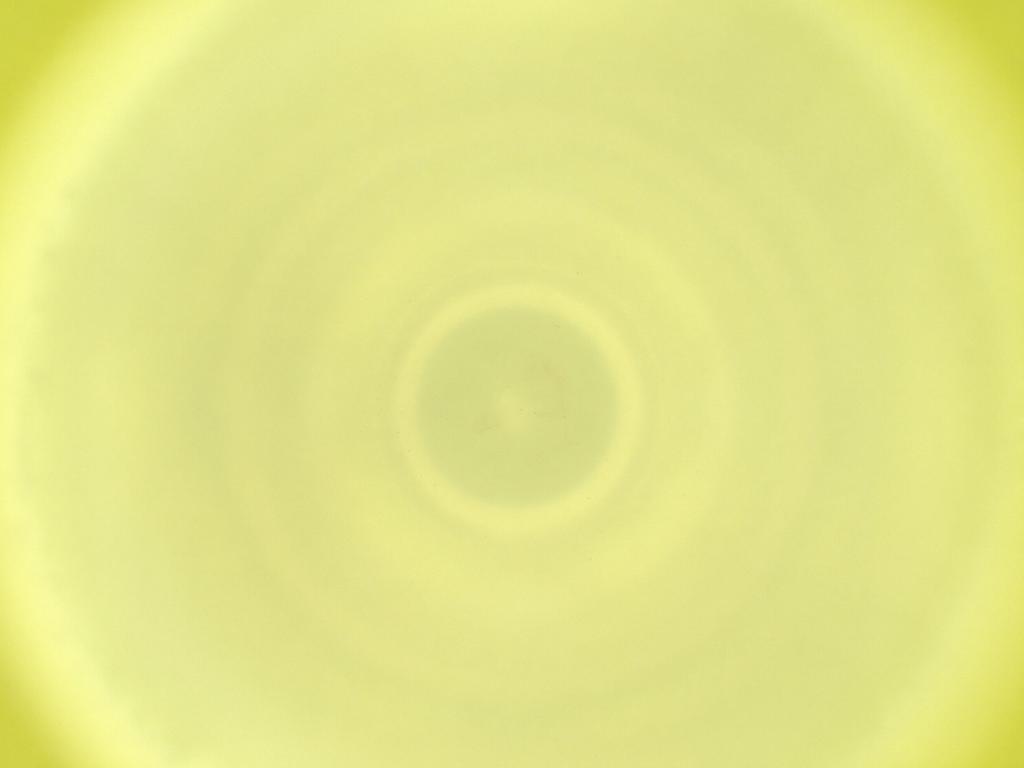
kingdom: Animalia
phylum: Arthropoda
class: Insecta
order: Diptera
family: Cecidomyiidae
